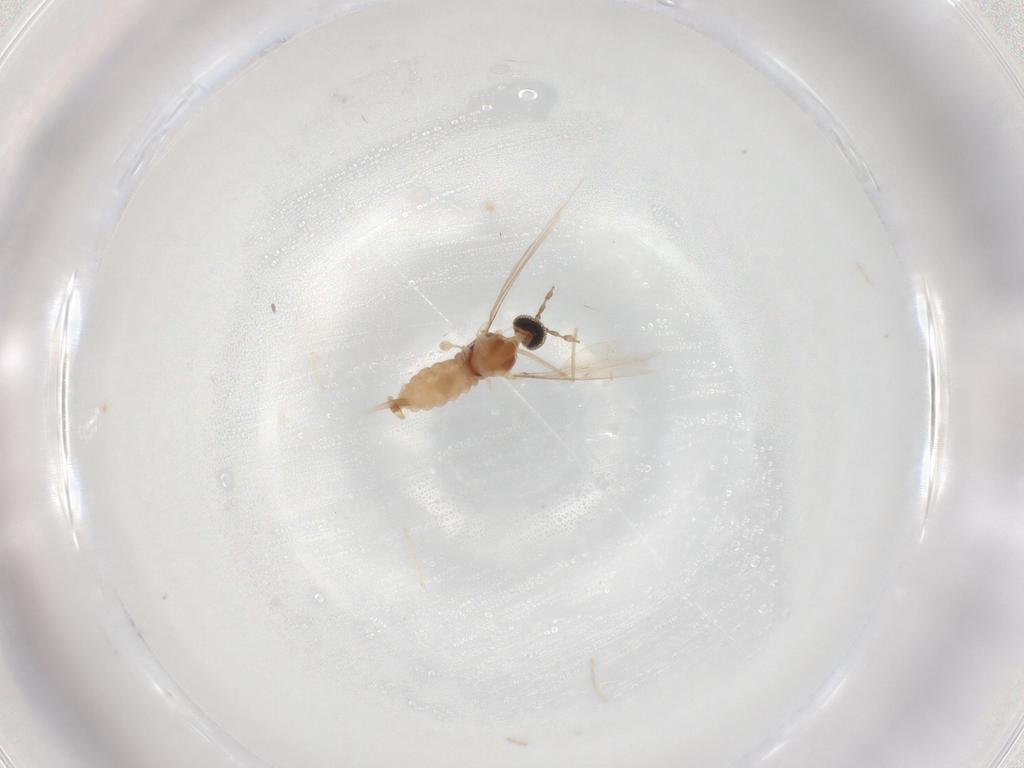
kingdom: Animalia
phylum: Arthropoda
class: Insecta
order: Diptera
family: Cecidomyiidae
